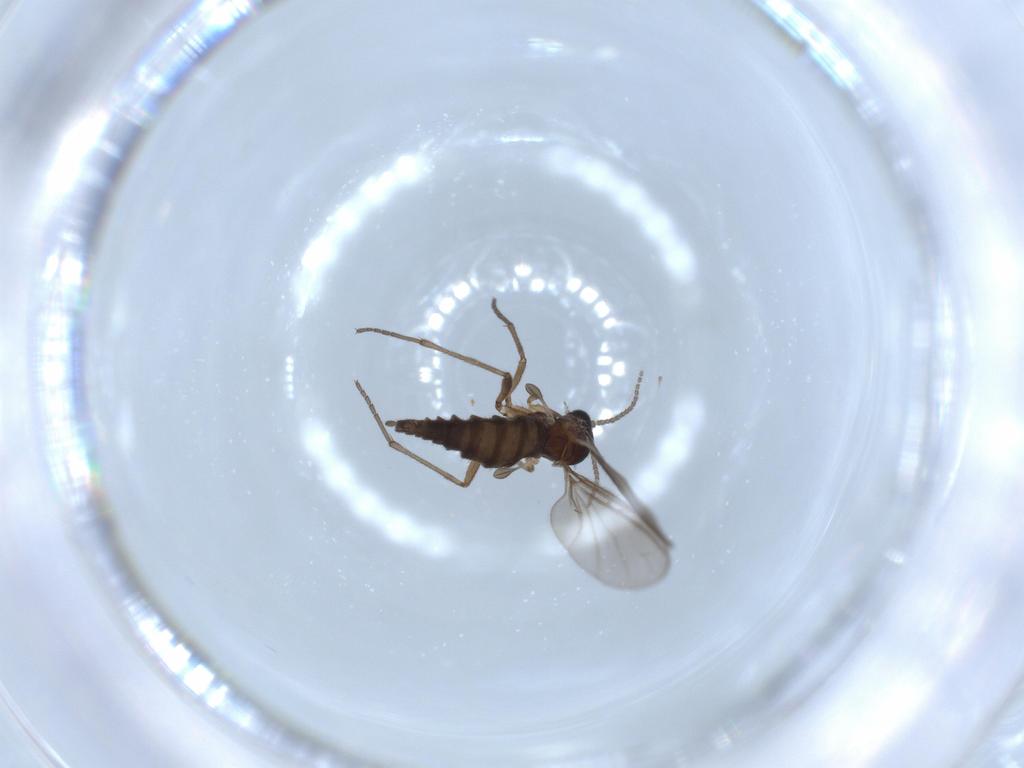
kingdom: Animalia
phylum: Arthropoda
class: Insecta
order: Diptera
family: Sciaridae
